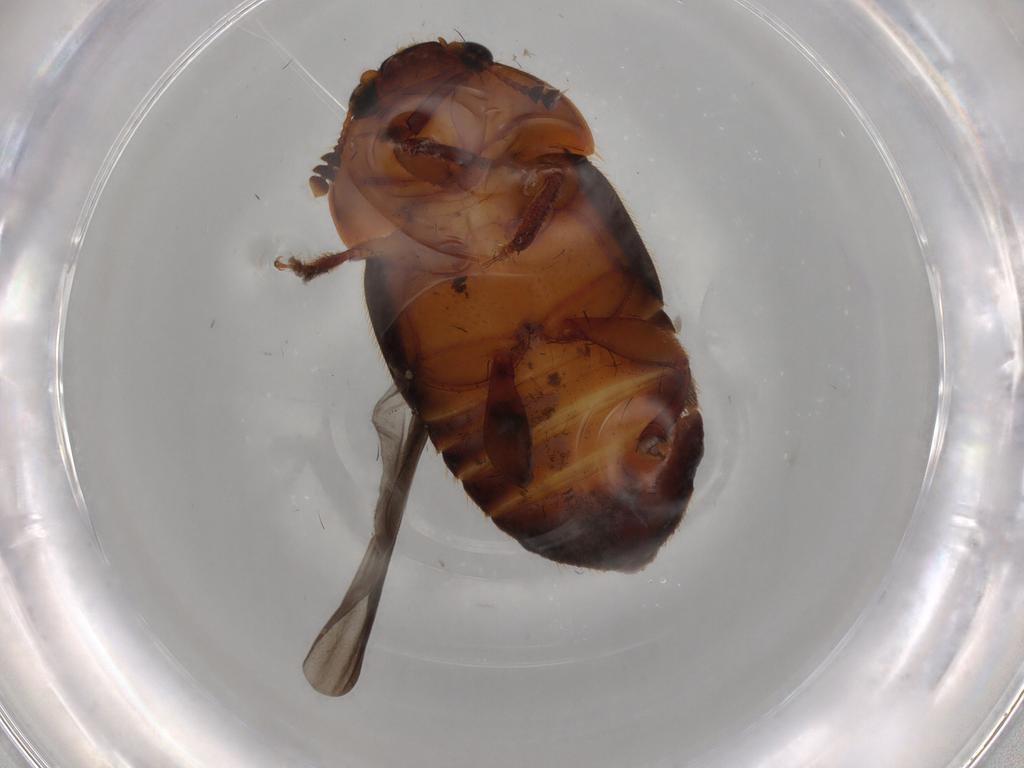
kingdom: Animalia
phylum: Arthropoda
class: Insecta
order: Coleoptera
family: Nitidulidae
